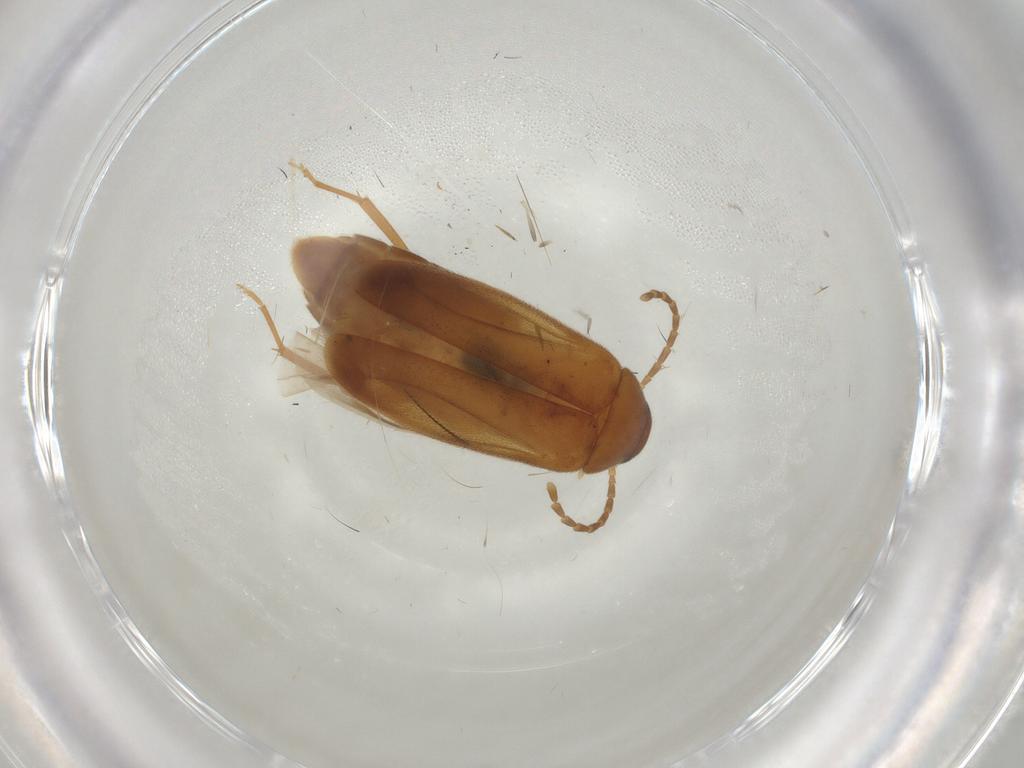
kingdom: Animalia
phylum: Arthropoda
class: Insecta
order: Coleoptera
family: Scraptiidae
